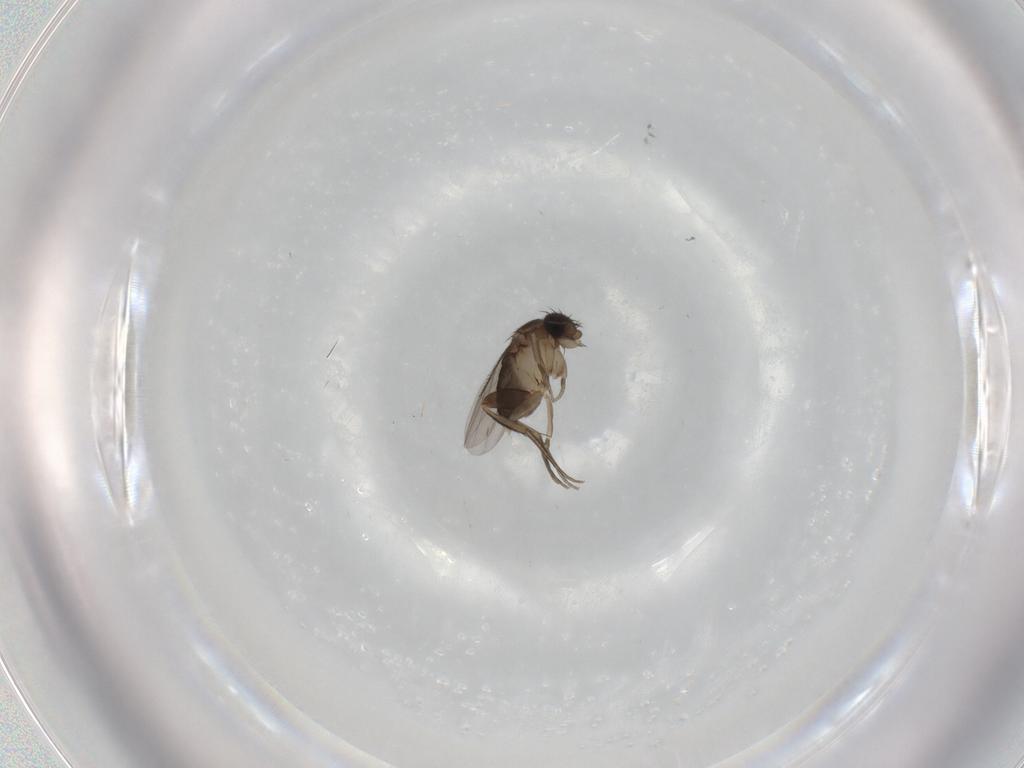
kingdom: Animalia
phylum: Arthropoda
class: Insecta
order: Diptera
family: Phoridae
